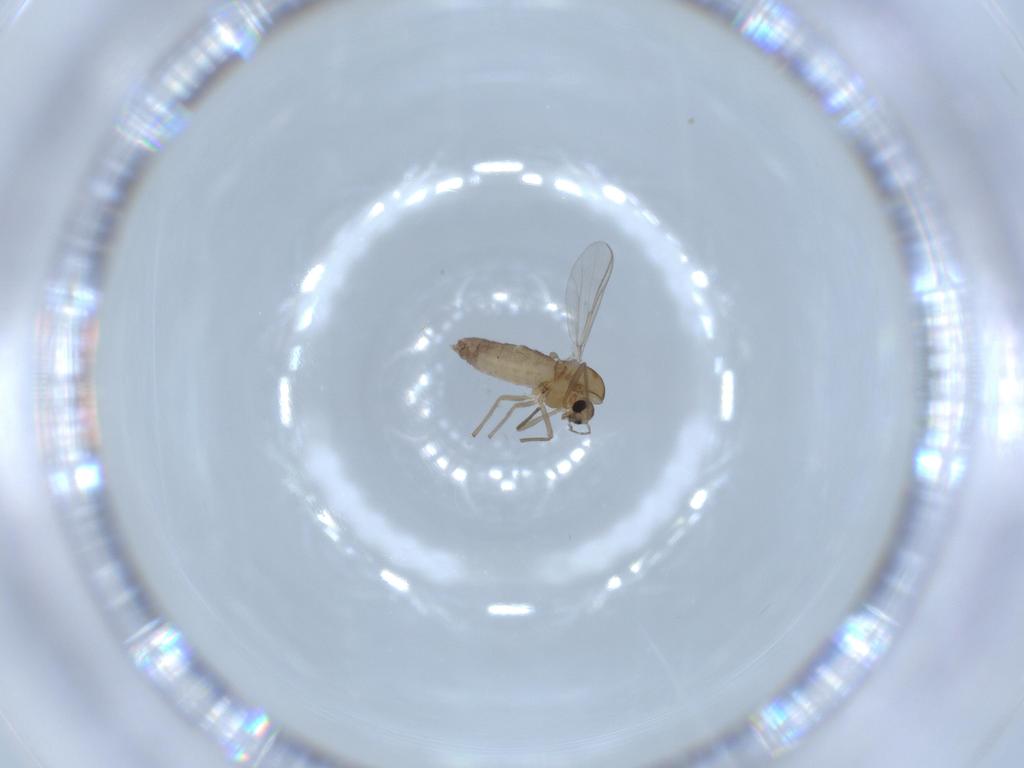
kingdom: Animalia
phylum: Arthropoda
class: Insecta
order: Diptera
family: Chironomidae
